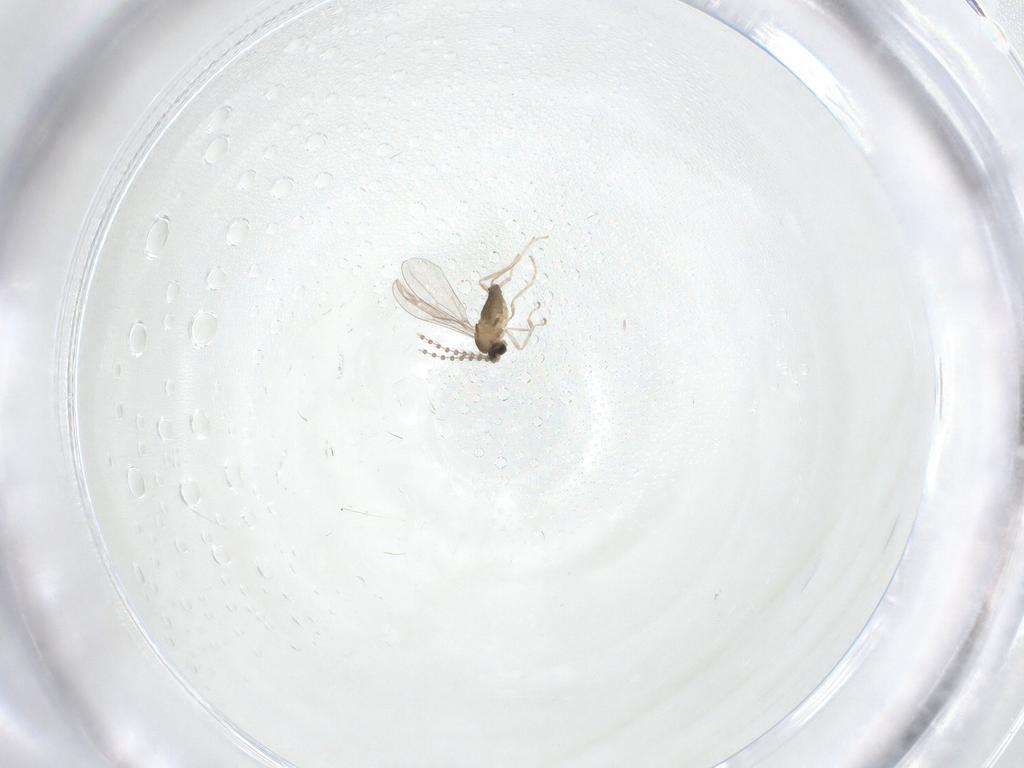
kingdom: Animalia
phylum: Arthropoda
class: Insecta
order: Diptera
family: Cecidomyiidae
